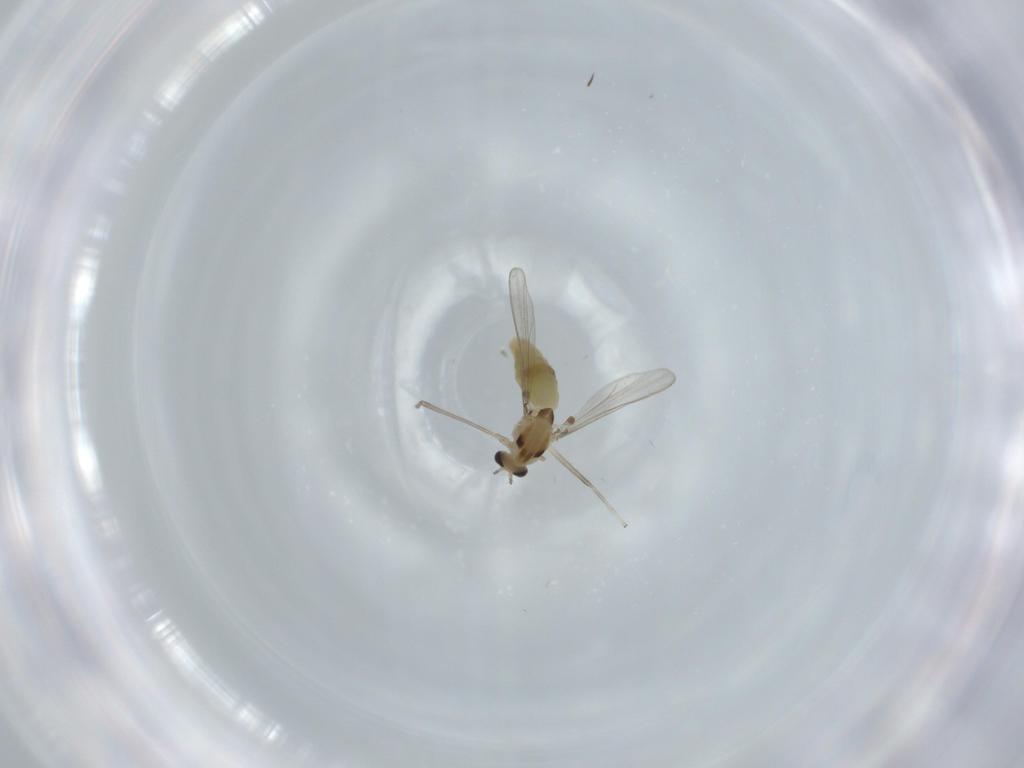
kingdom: Animalia
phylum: Arthropoda
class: Insecta
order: Diptera
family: Chironomidae
